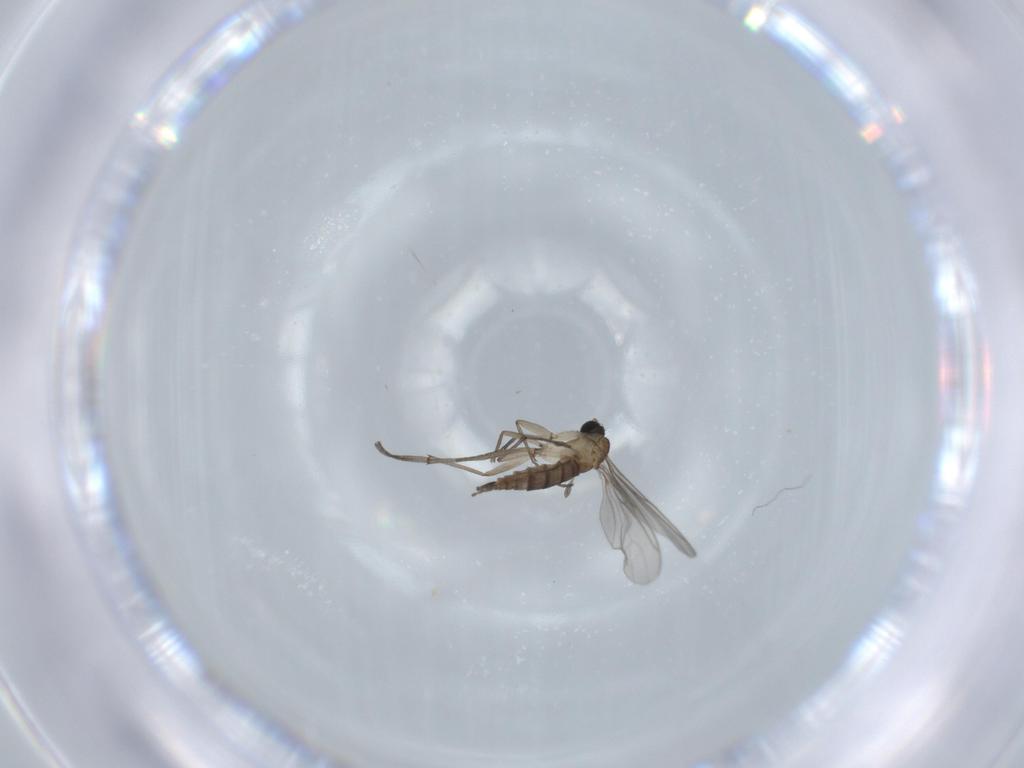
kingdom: Animalia
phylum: Arthropoda
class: Insecta
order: Diptera
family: Sciaridae
